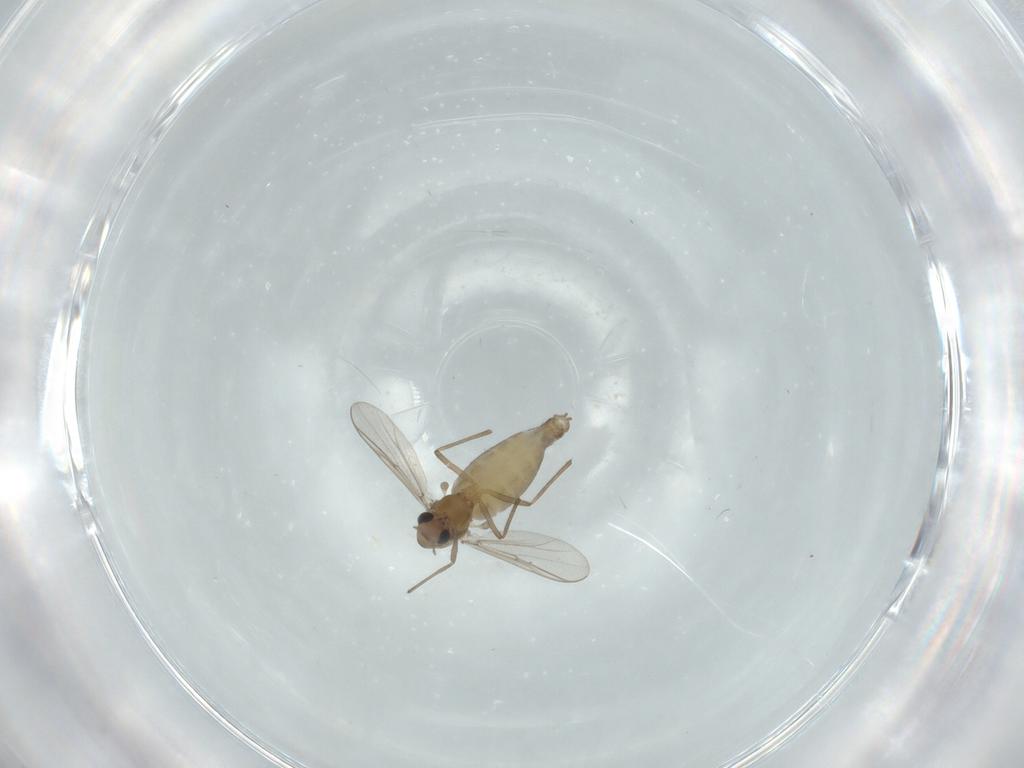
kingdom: Animalia
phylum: Arthropoda
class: Insecta
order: Diptera
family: Chironomidae
